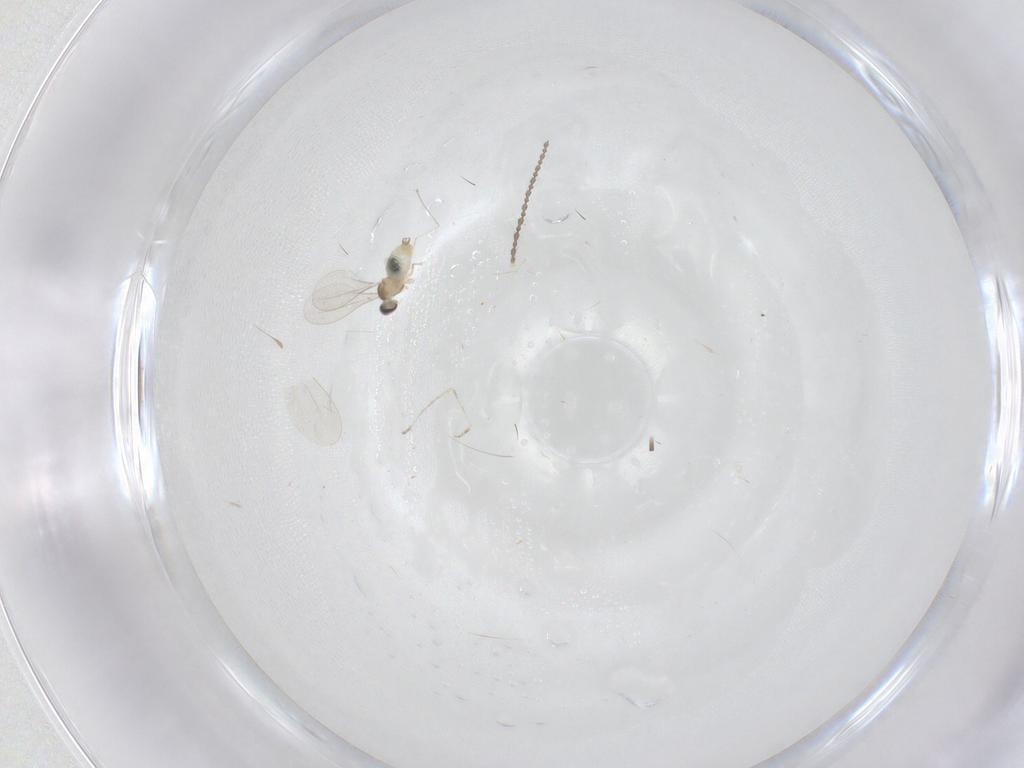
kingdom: Animalia
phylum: Arthropoda
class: Insecta
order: Diptera
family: Cecidomyiidae
